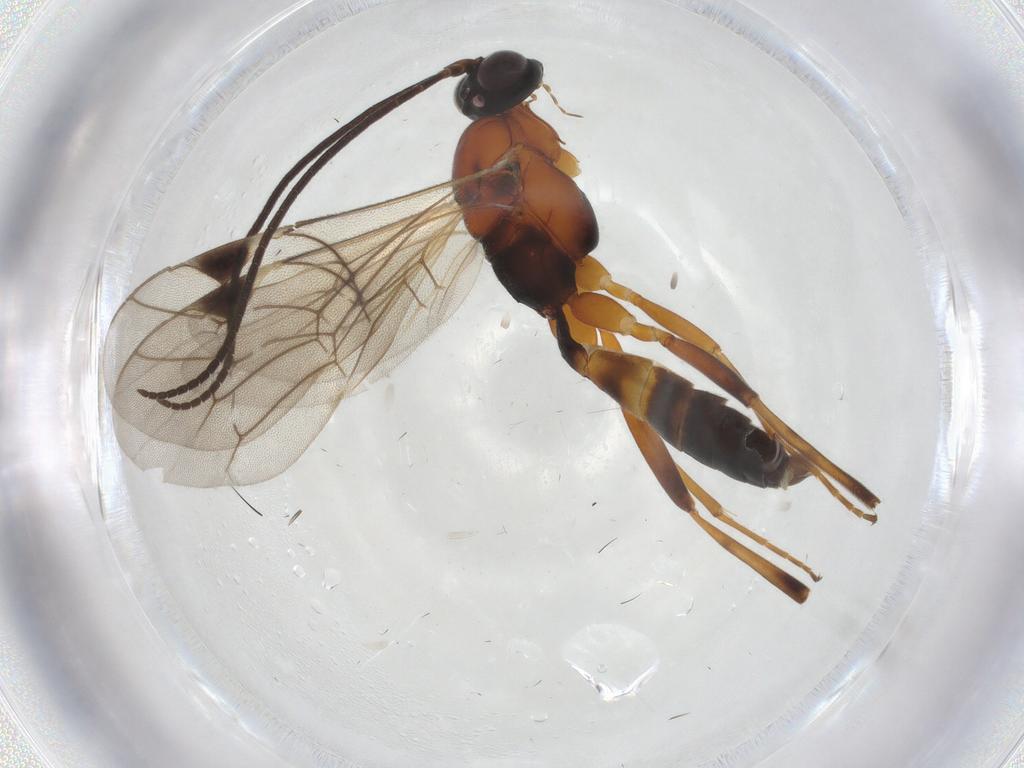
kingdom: Animalia
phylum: Arthropoda
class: Insecta
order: Hymenoptera
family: Ichneumonidae
